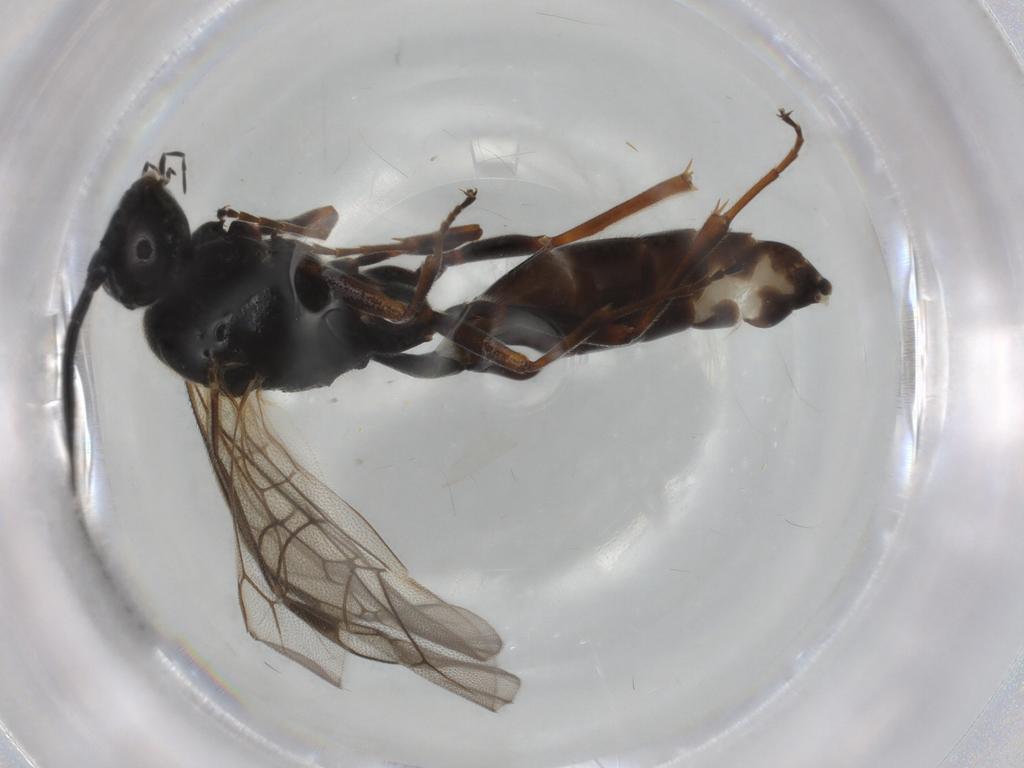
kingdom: Animalia
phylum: Arthropoda
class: Insecta
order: Hymenoptera
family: Ichneumonidae
